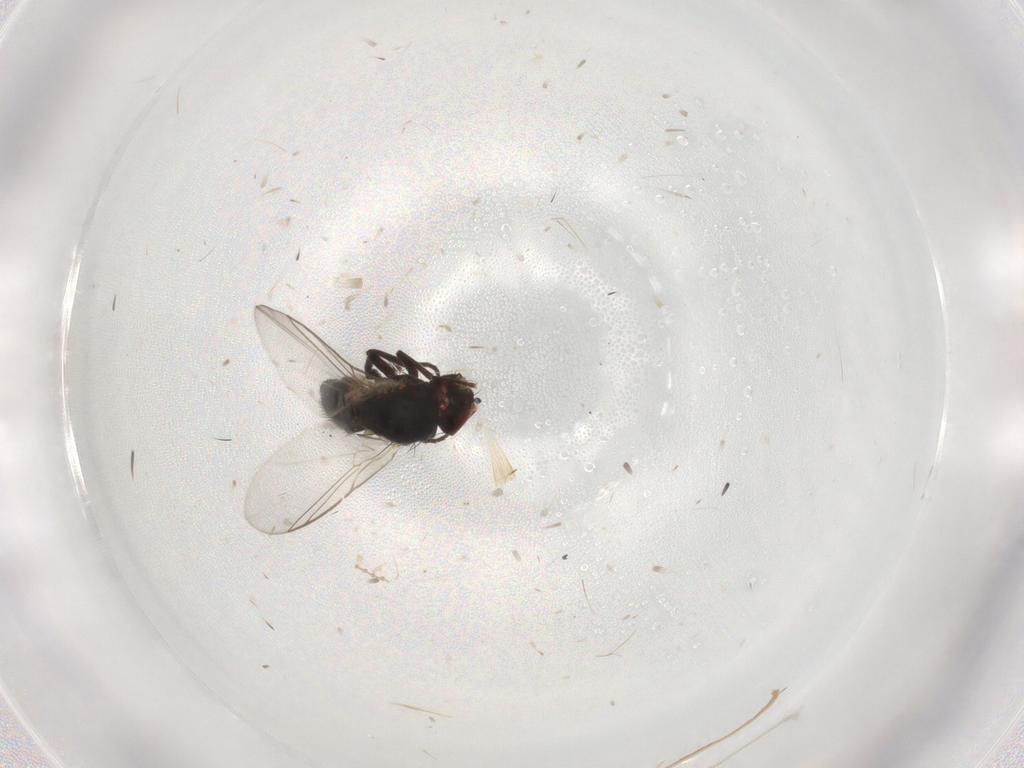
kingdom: Animalia
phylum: Arthropoda
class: Insecta
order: Diptera
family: Agromyzidae
